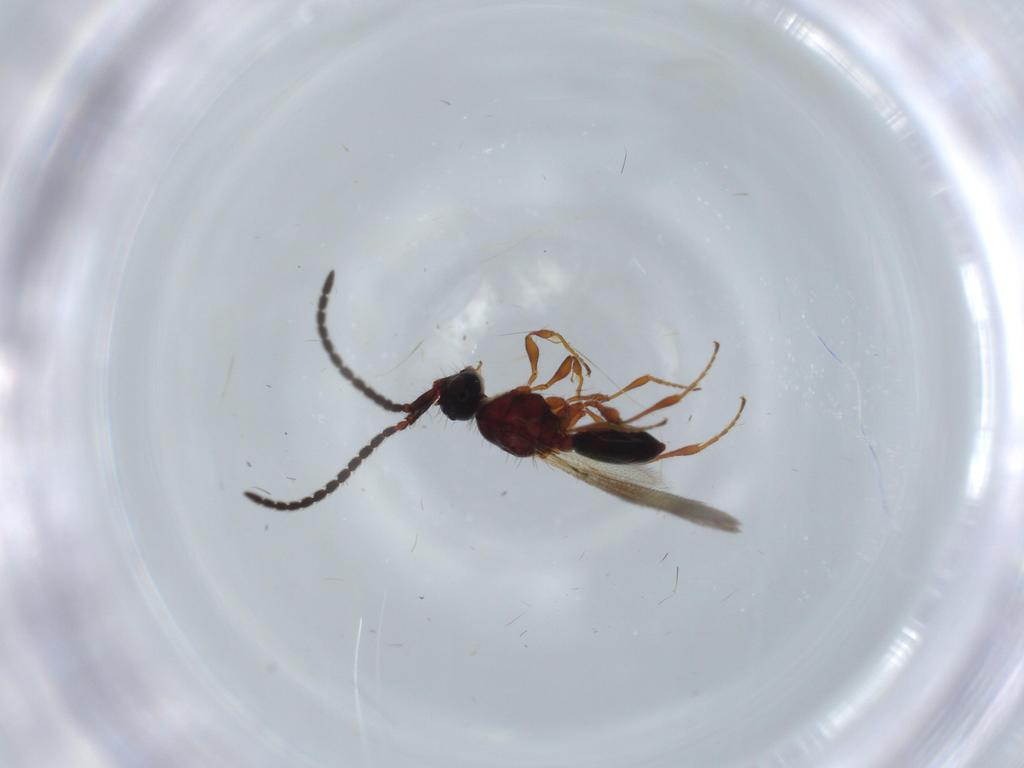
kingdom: Animalia
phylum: Arthropoda
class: Insecta
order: Hymenoptera
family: Diapriidae
